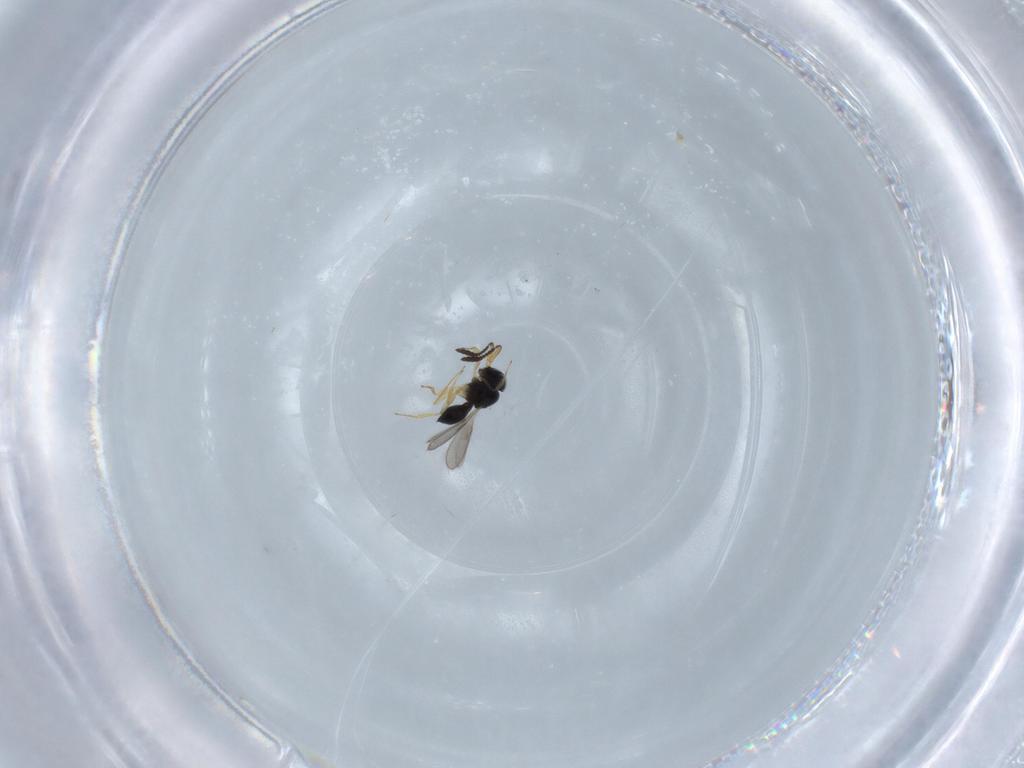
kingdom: Animalia
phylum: Arthropoda
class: Insecta
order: Hymenoptera
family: Scelionidae
